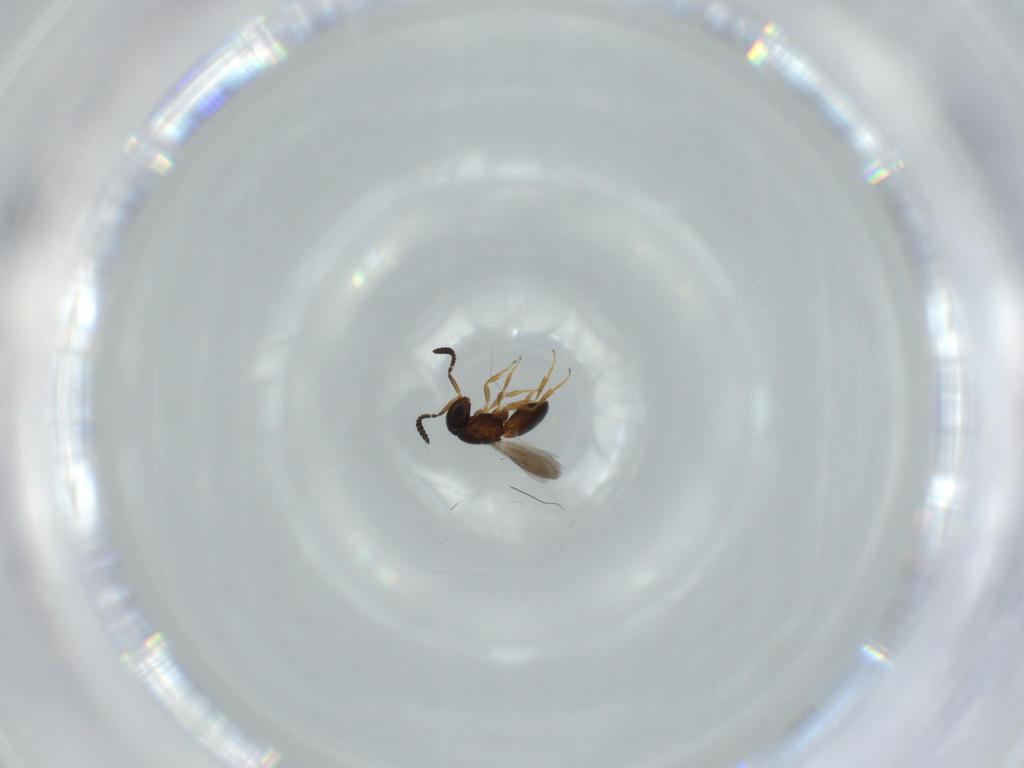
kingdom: Animalia
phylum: Arthropoda
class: Insecta
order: Hymenoptera
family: Scelionidae
